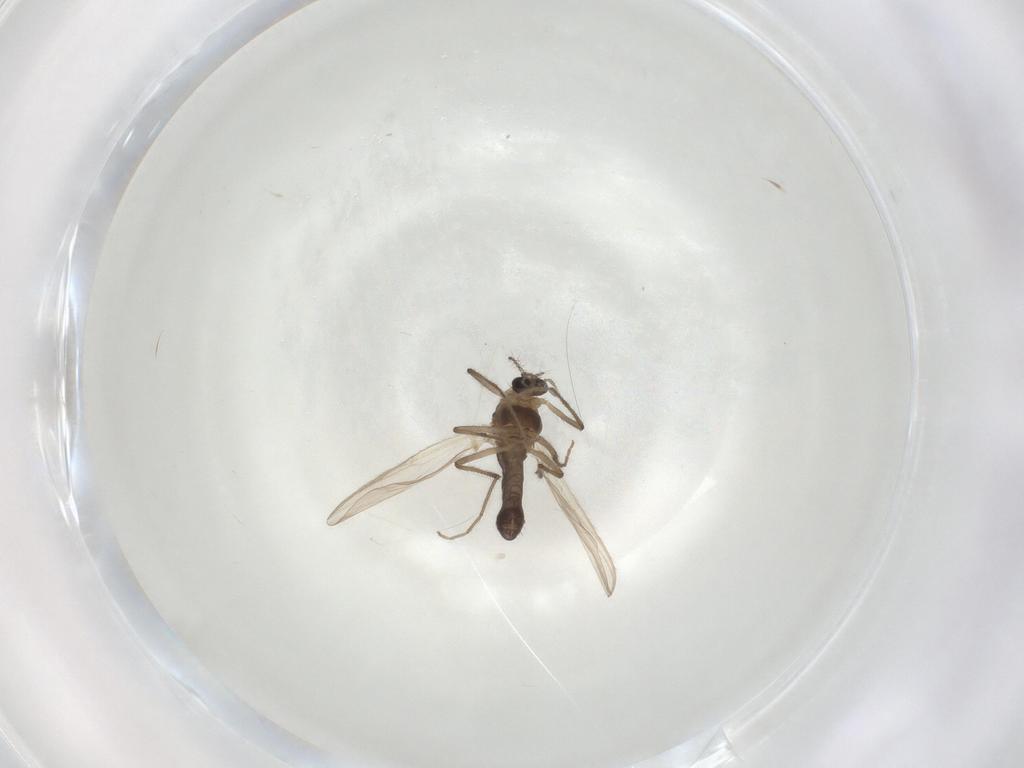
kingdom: Animalia
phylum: Arthropoda
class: Insecta
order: Diptera
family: Chironomidae
